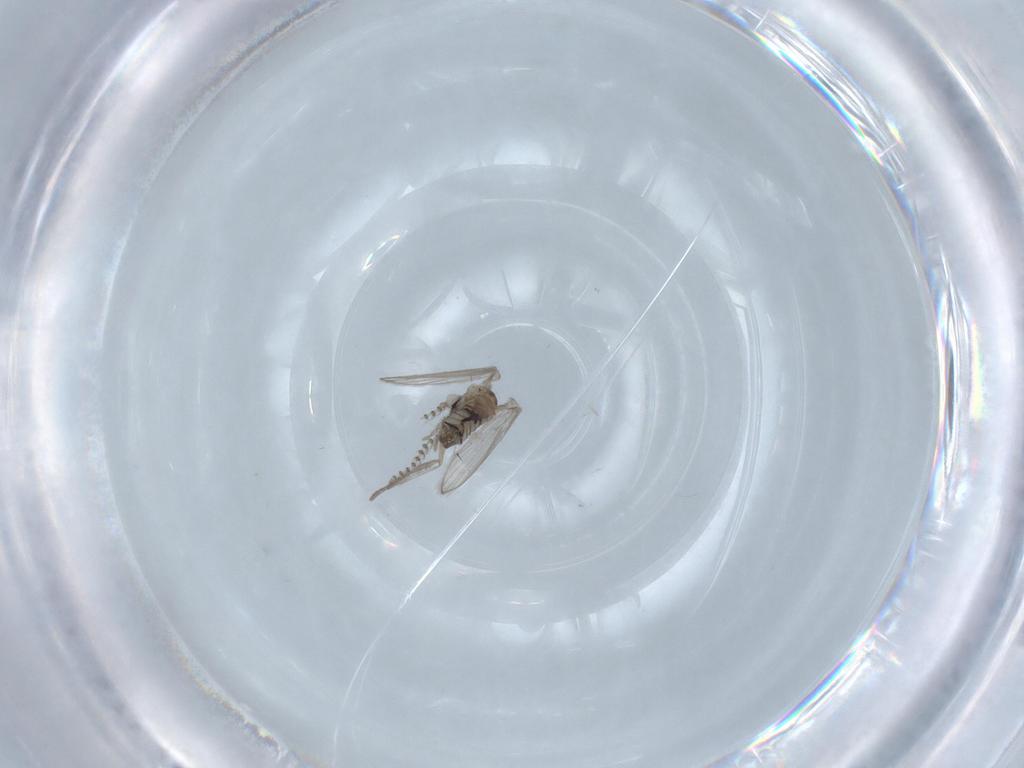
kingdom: Animalia
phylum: Arthropoda
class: Insecta
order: Diptera
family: Psychodidae
